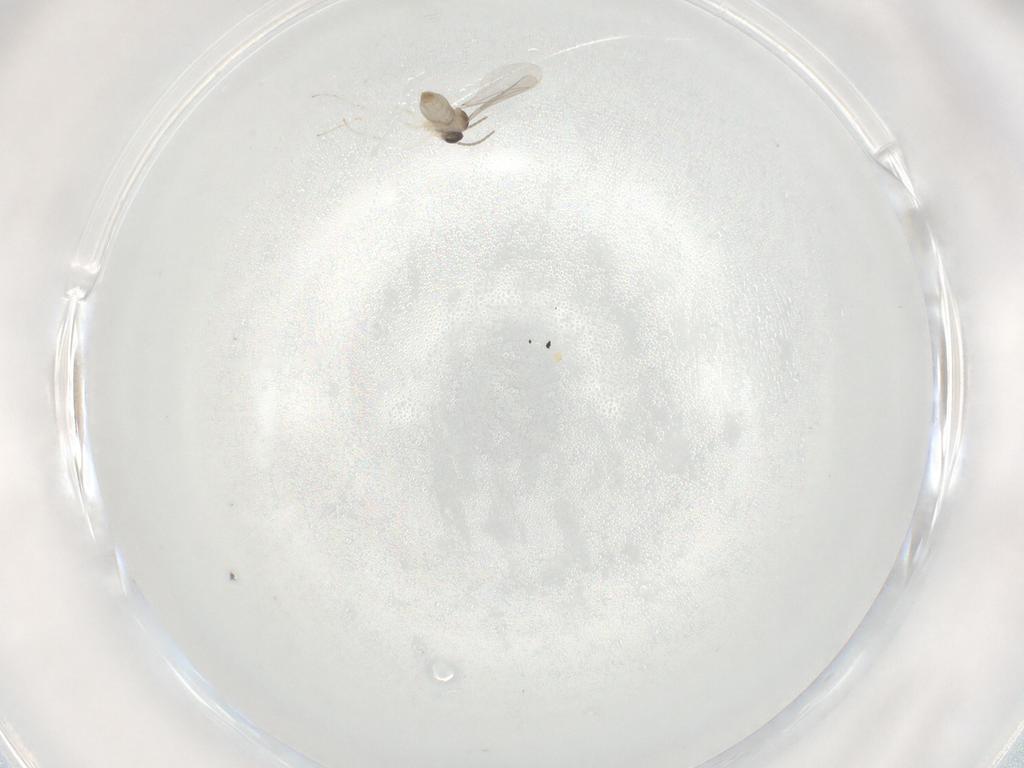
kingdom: Animalia
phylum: Arthropoda
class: Insecta
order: Diptera
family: Cecidomyiidae
